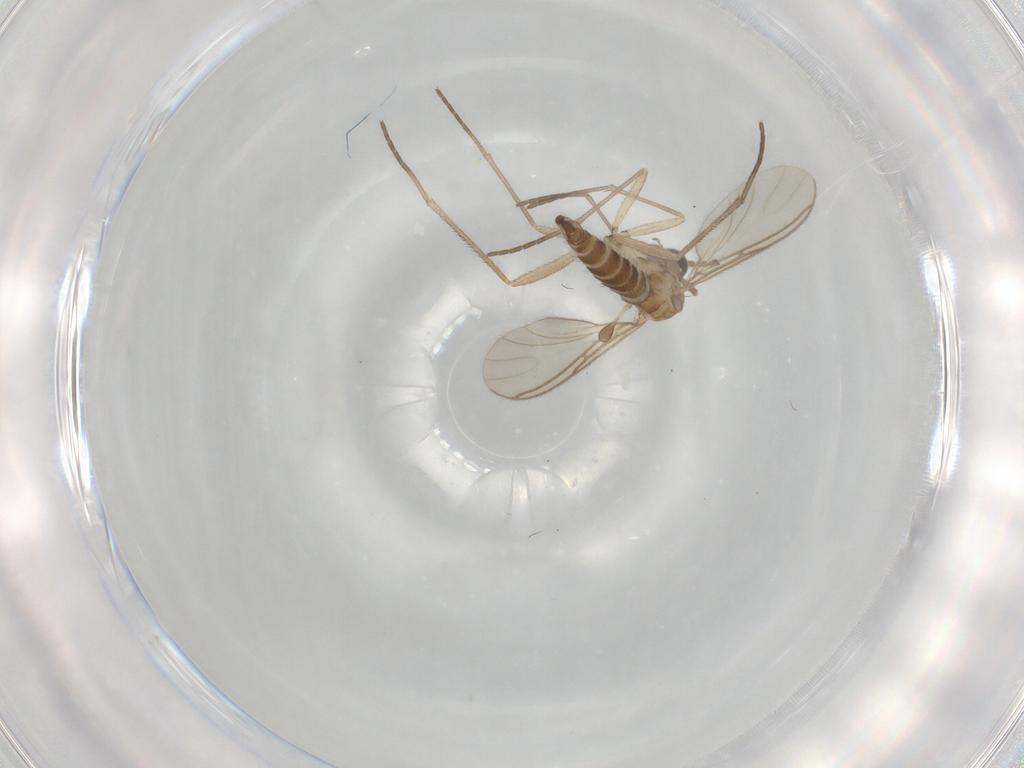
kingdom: Animalia
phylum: Arthropoda
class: Insecta
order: Diptera
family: Sciaridae
